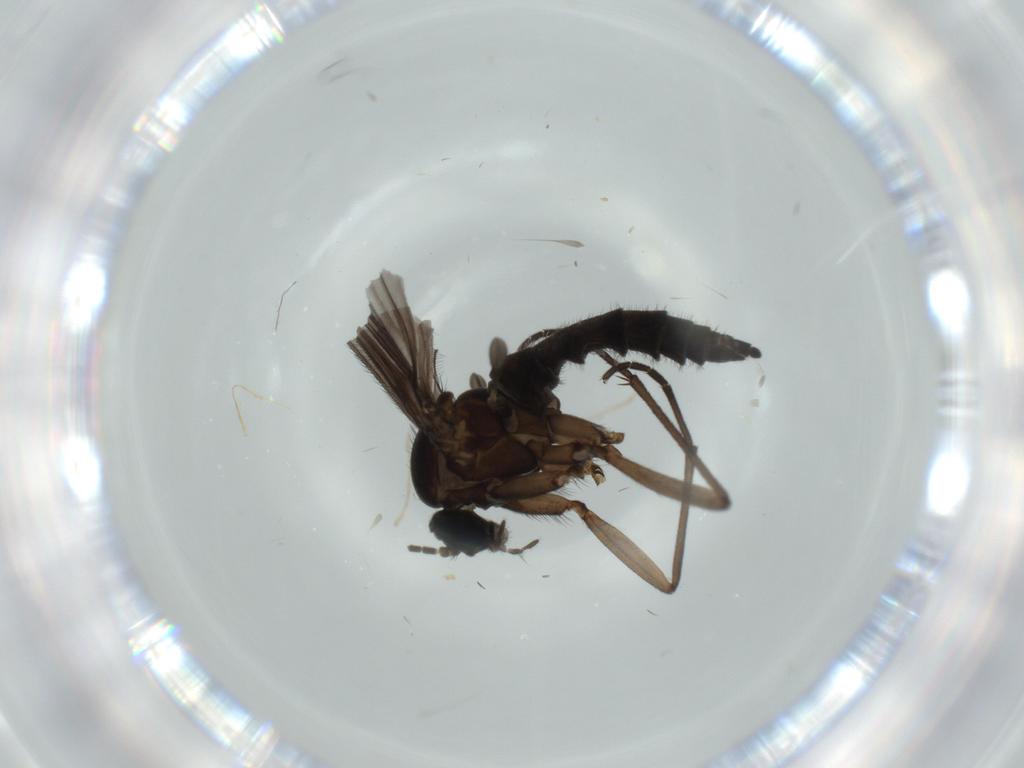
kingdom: Animalia
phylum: Arthropoda
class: Insecta
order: Diptera
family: Sciaridae
